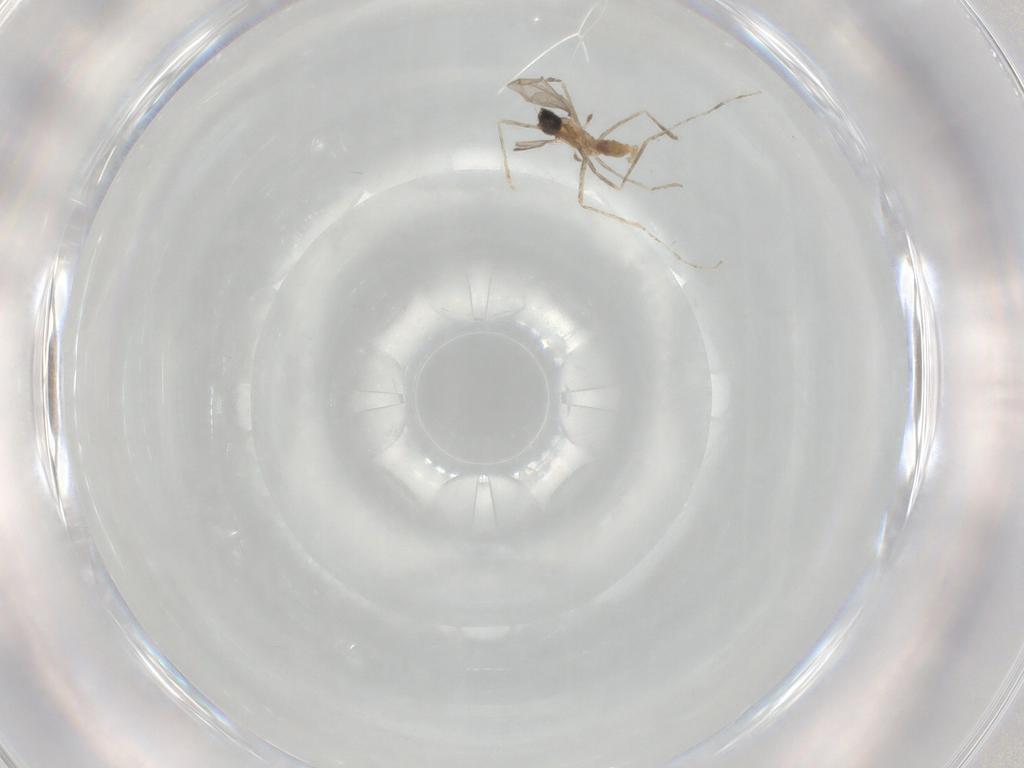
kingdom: Animalia
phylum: Arthropoda
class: Insecta
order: Diptera
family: Cecidomyiidae
